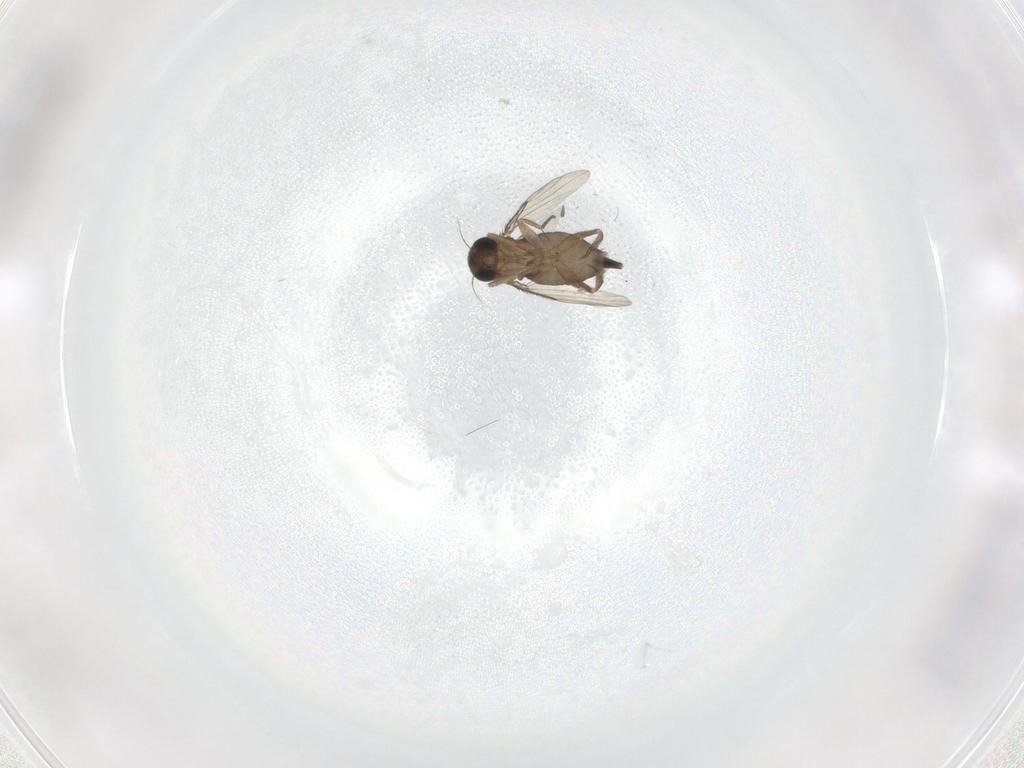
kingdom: Animalia
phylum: Arthropoda
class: Insecta
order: Diptera
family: Phoridae
